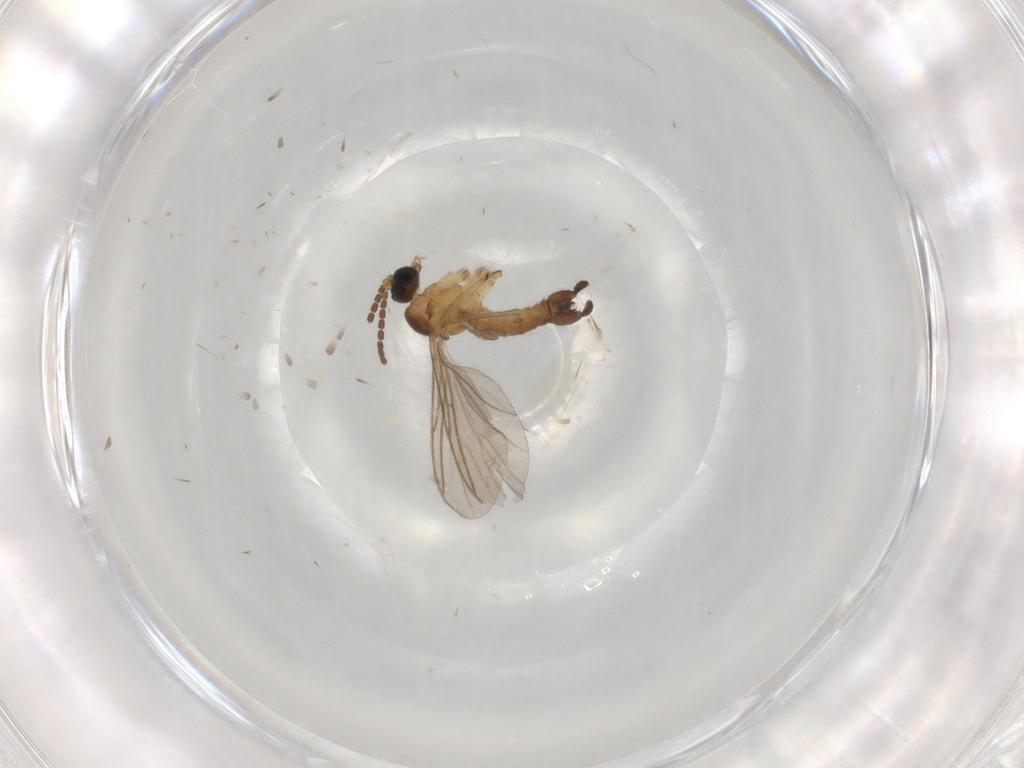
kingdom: Animalia
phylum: Arthropoda
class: Insecta
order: Diptera
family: Sciaridae
